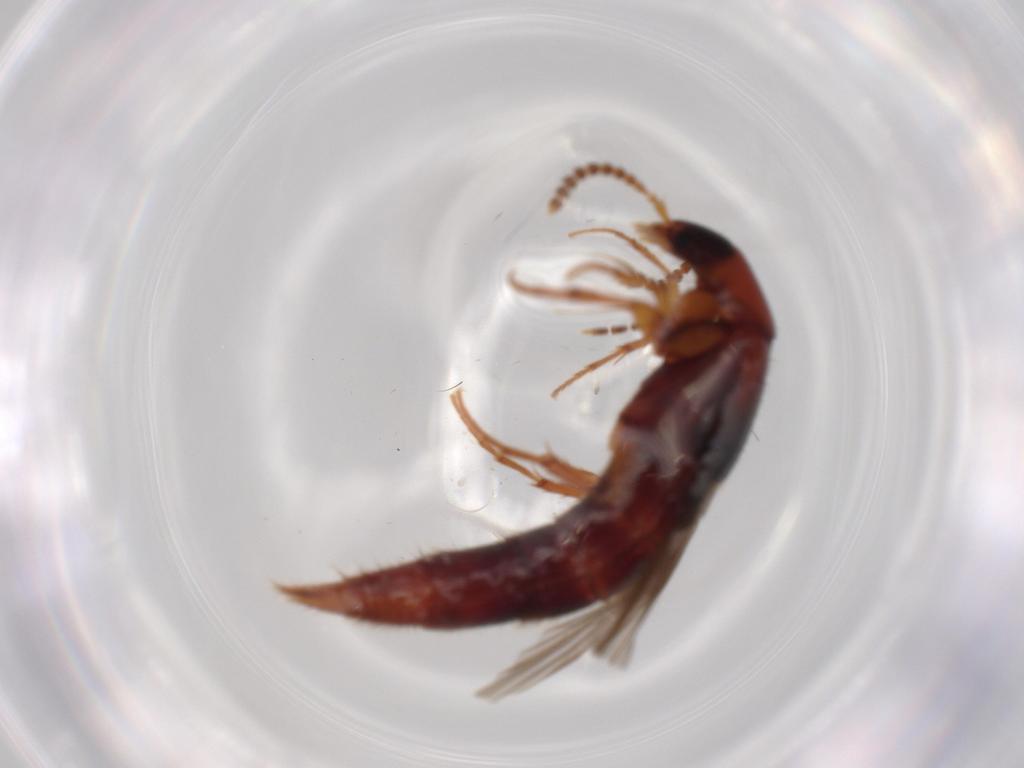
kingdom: Animalia
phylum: Arthropoda
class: Insecta
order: Coleoptera
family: Staphylinidae
